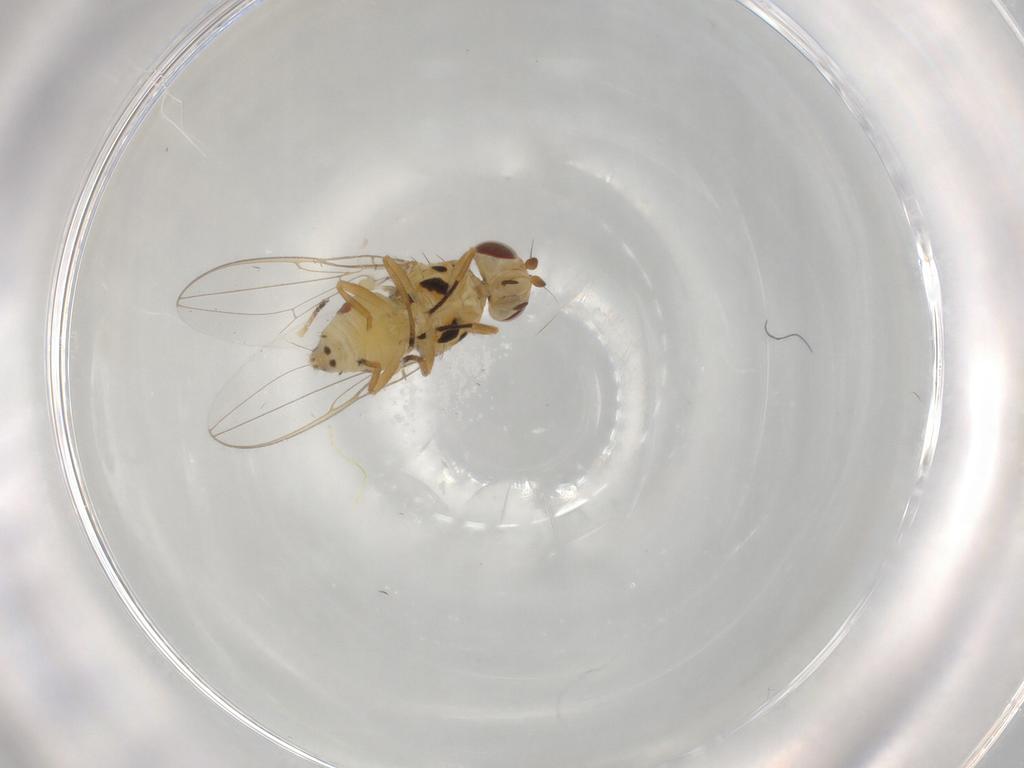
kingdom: Animalia
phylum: Arthropoda
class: Insecta
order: Diptera
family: Asteiidae
